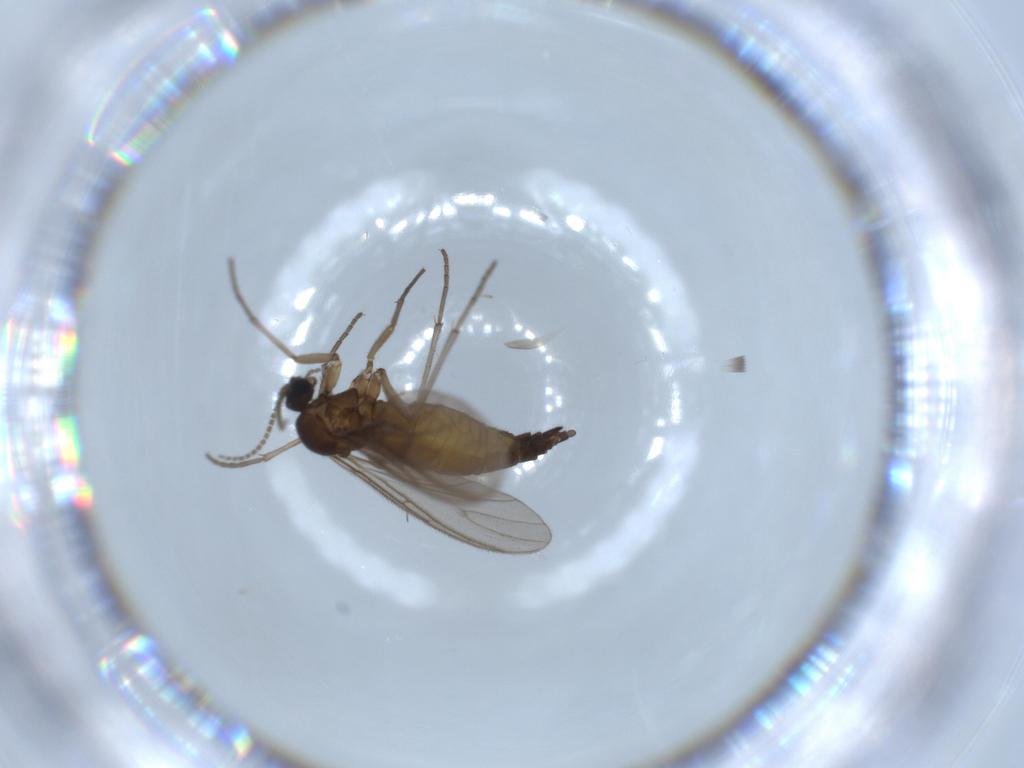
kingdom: Animalia
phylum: Arthropoda
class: Insecta
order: Diptera
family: Sciaridae
